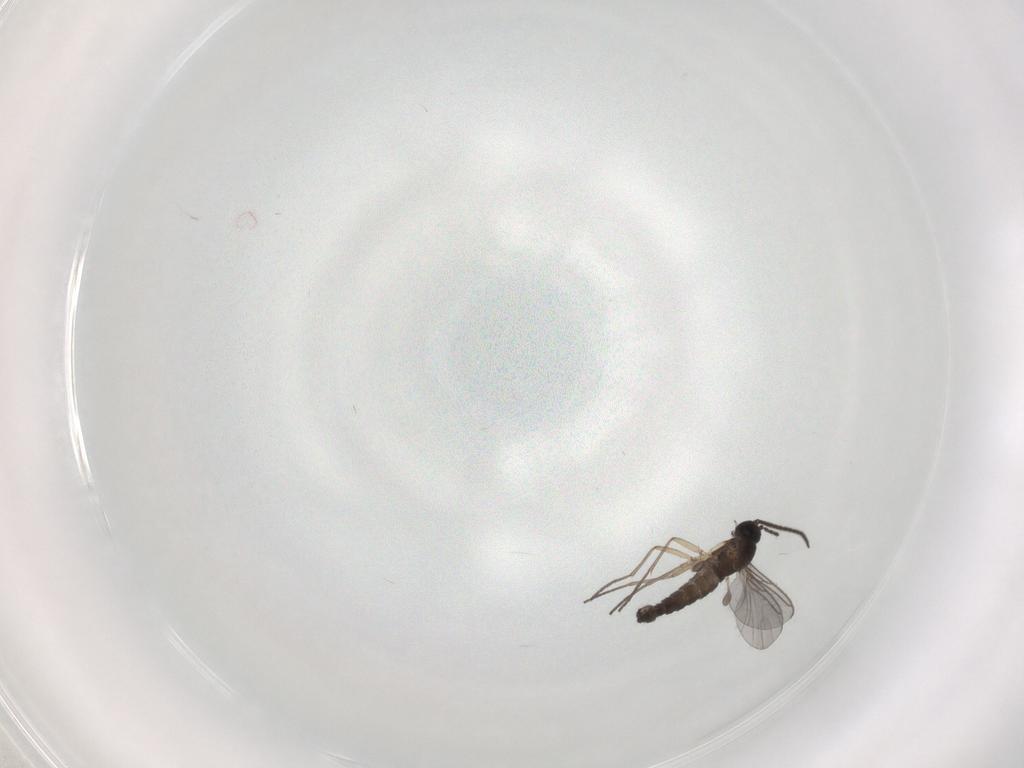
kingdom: Animalia
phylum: Arthropoda
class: Insecta
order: Diptera
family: Sciaridae
